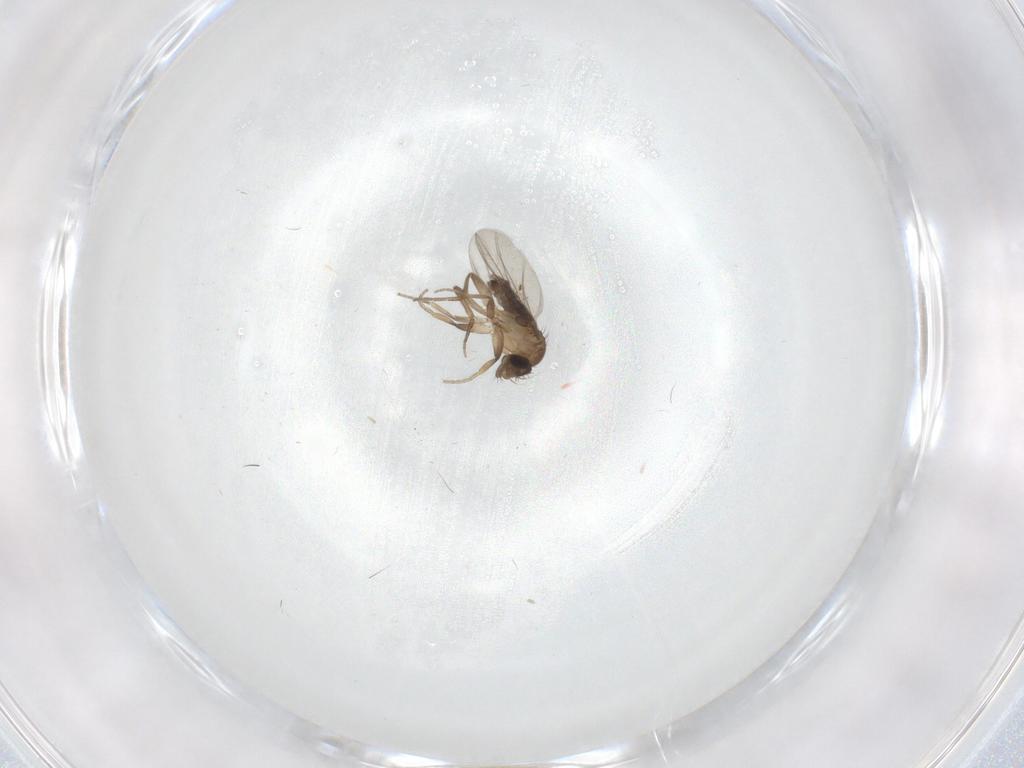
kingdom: Animalia
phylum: Arthropoda
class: Insecta
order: Diptera
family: Phoridae
